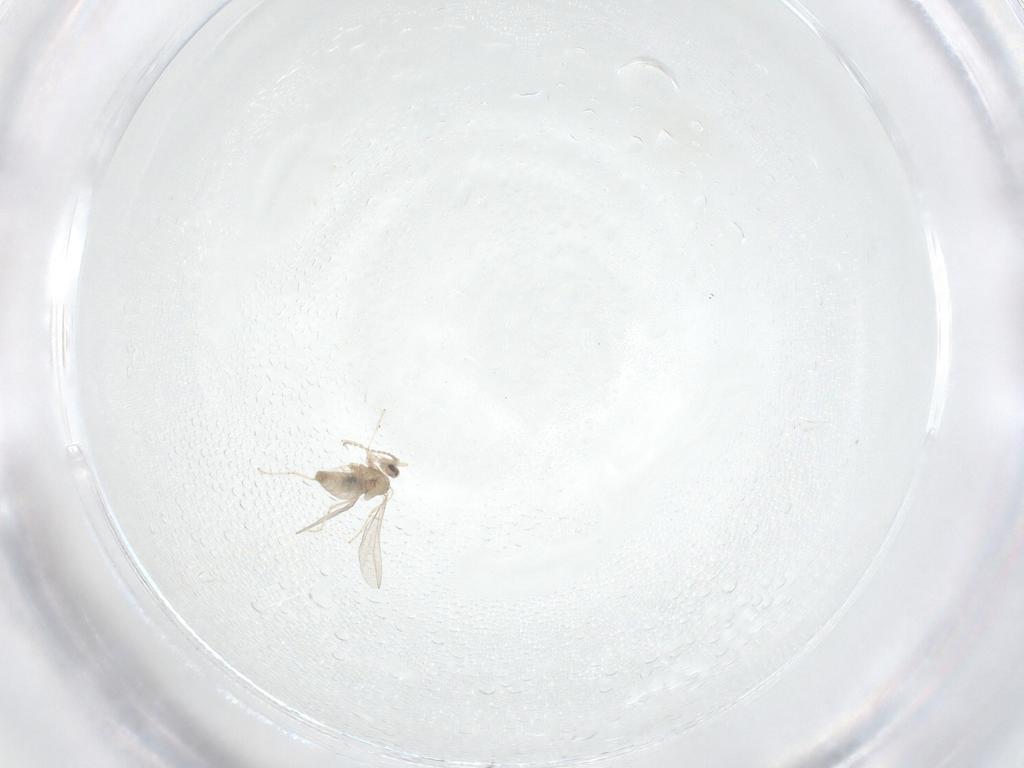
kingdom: Animalia
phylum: Arthropoda
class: Insecta
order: Diptera
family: Cecidomyiidae
